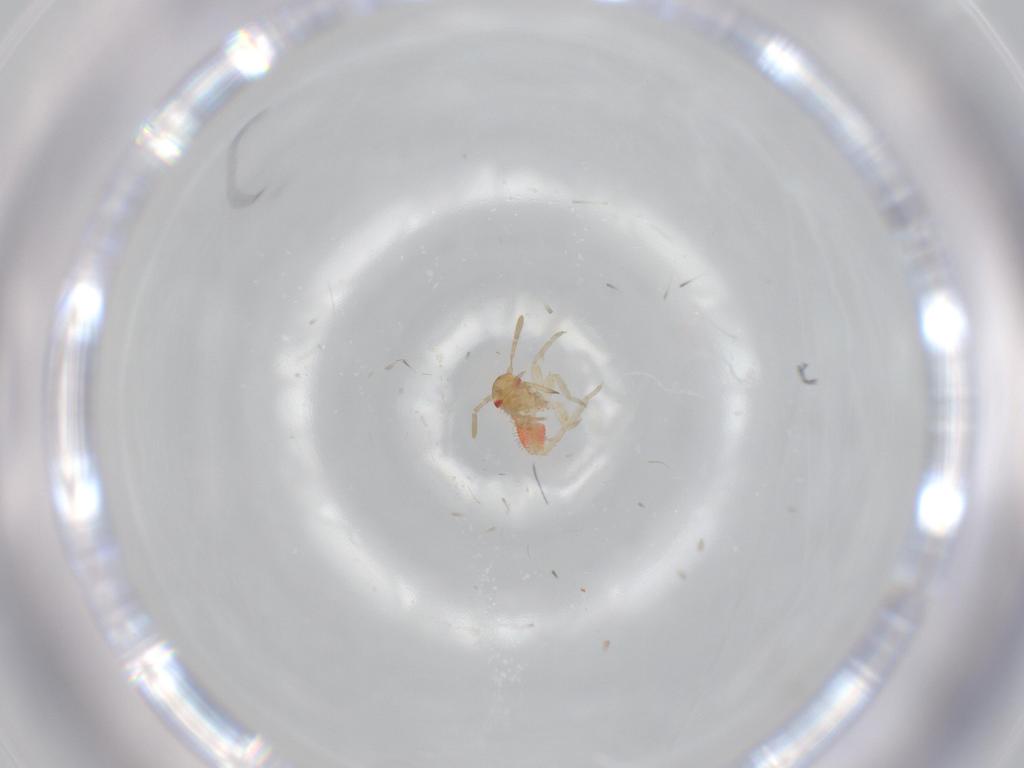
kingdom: Animalia
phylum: Arthropoda
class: Insecta
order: Hemiptera
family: Miridae
